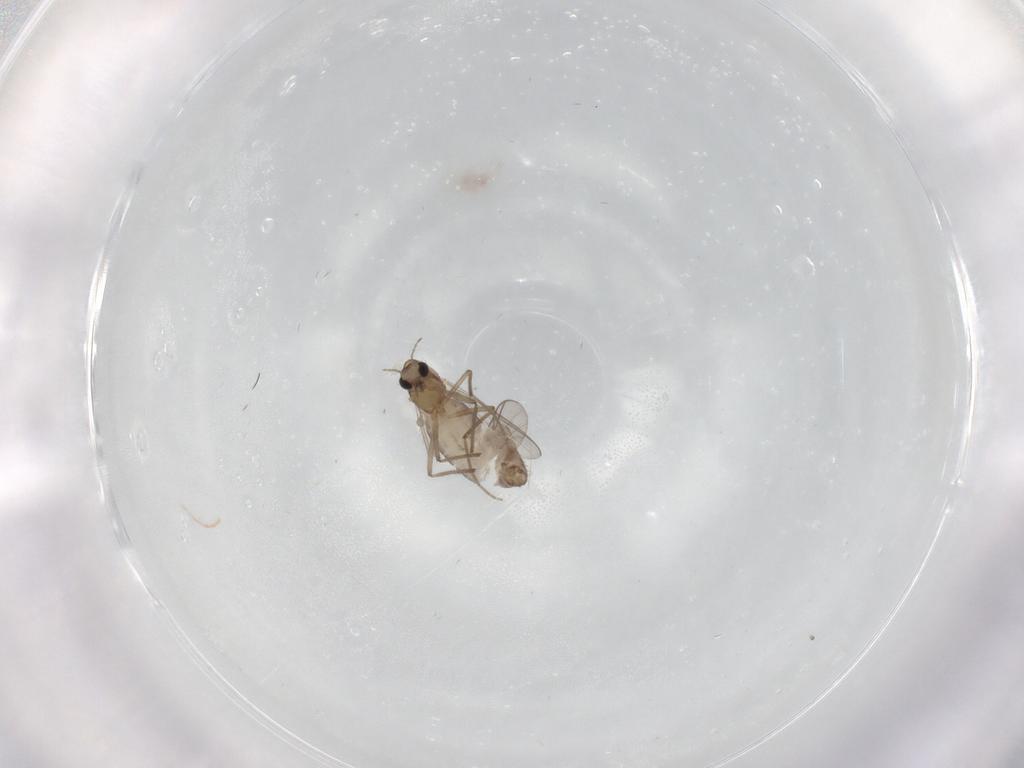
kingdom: Animalia
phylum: Arthropoda
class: Insecta
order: Diptera
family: Chironomidae
